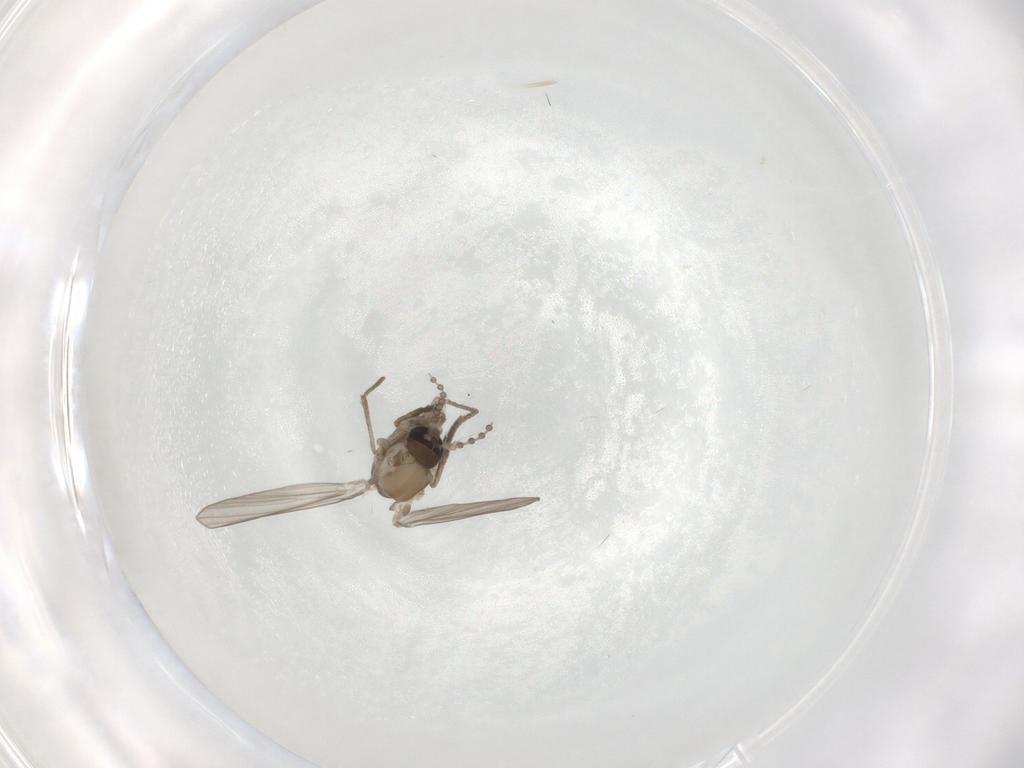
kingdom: Animalia
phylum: Arthropoda
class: Insecta
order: Diptera
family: Psychodidae
